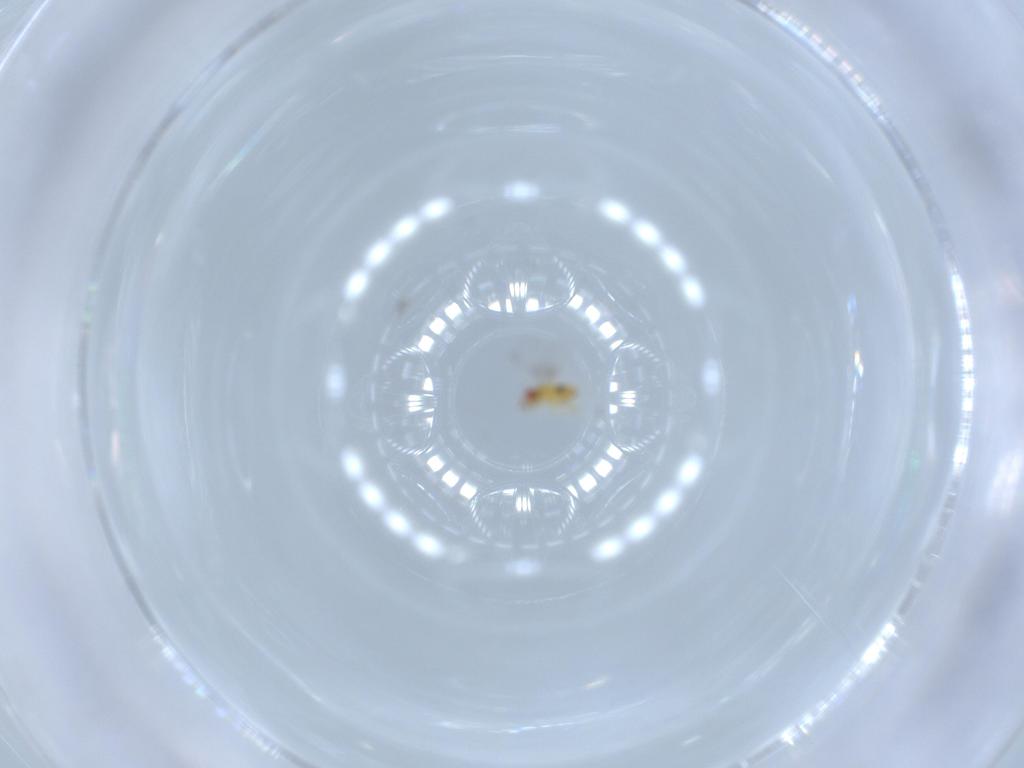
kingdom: Animalia
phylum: Arthropoda
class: Insecta
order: Hymenoptera
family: Trichogrammatidae
